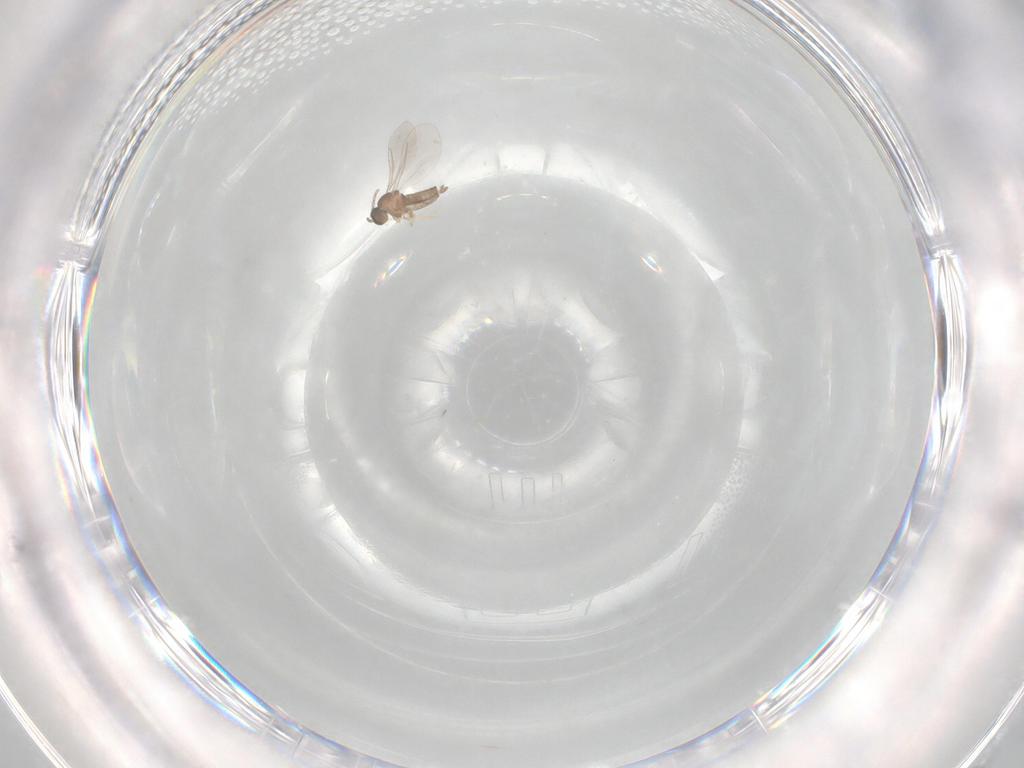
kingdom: Animalia
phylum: Arthropoda
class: Insecta
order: Diptera
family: Cecidomyiidae
